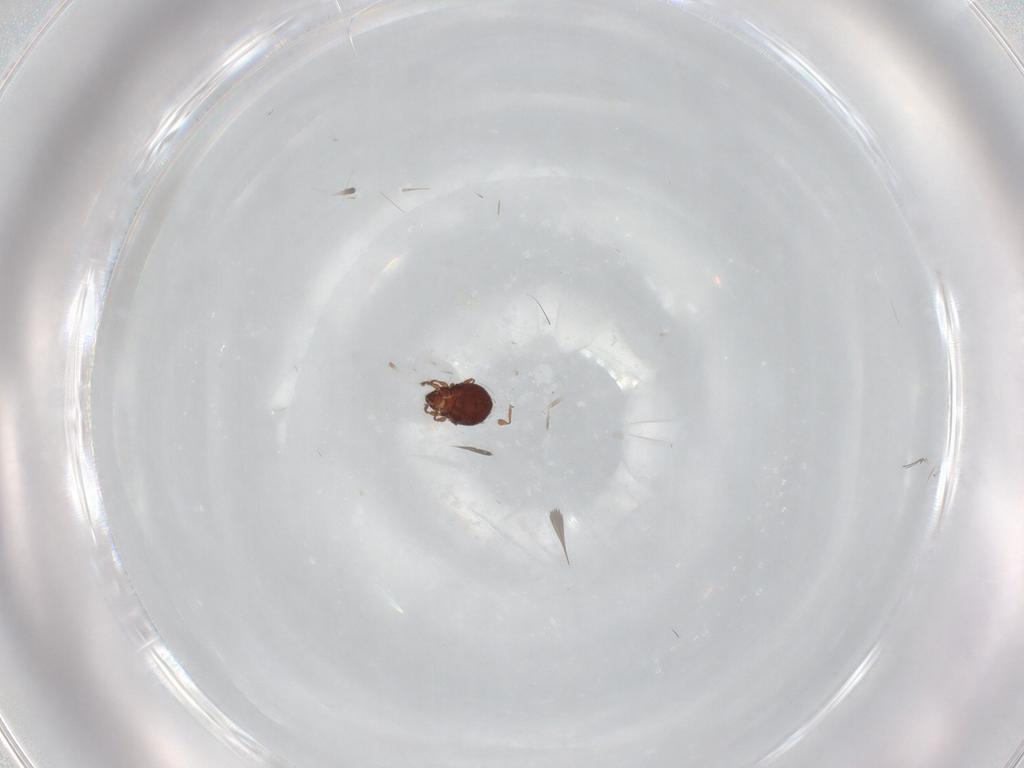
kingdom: Animalia
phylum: Arthropoda
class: Arachnida
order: Sarcoptiformes
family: Scheloribatidae
